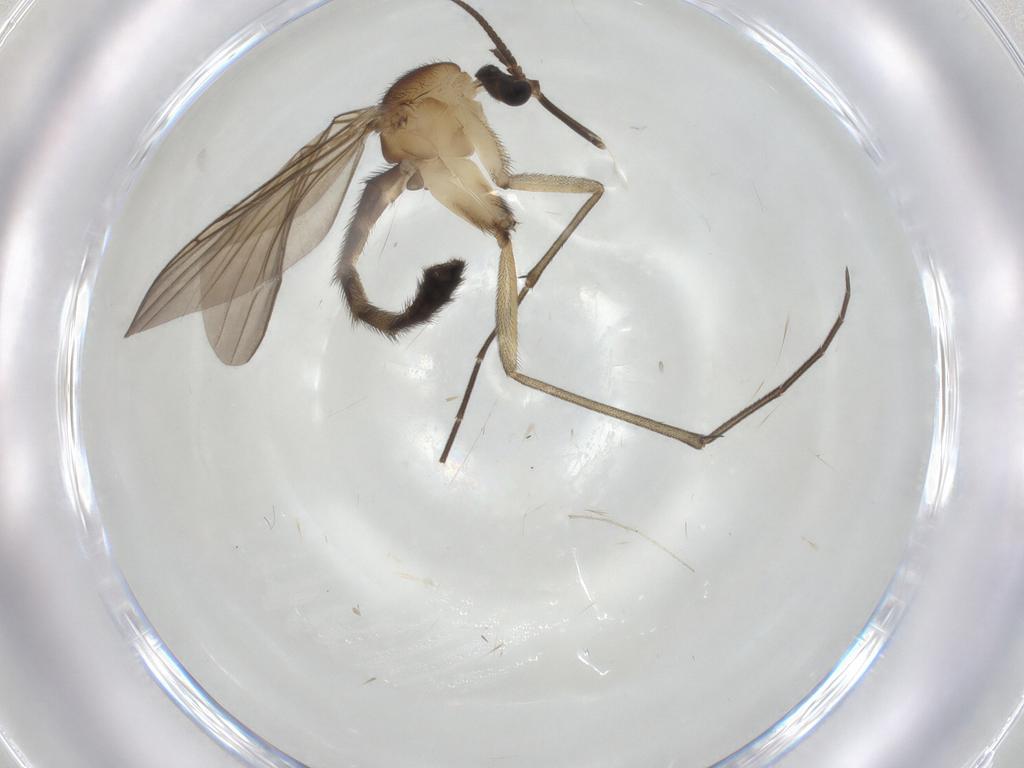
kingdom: Animalia
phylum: Arthropoda
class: Insecta
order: Diptera
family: Keroplatidae
